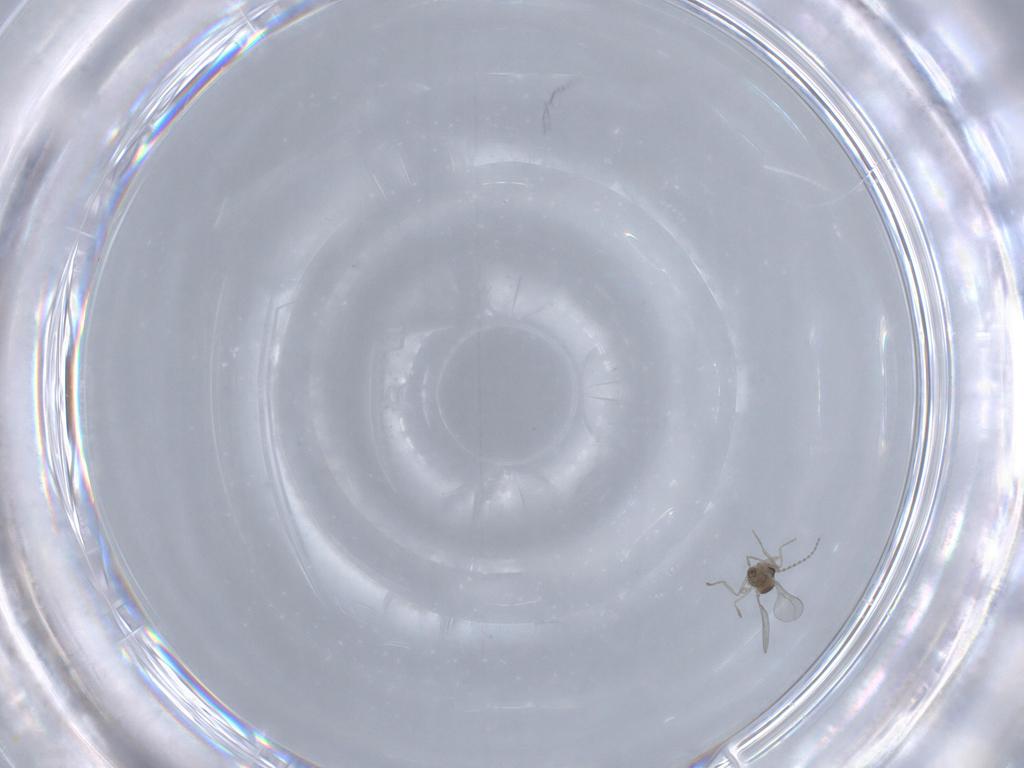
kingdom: Animalia
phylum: Arthropoda
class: Insecta
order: Diptera
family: Cecidomyiidae
